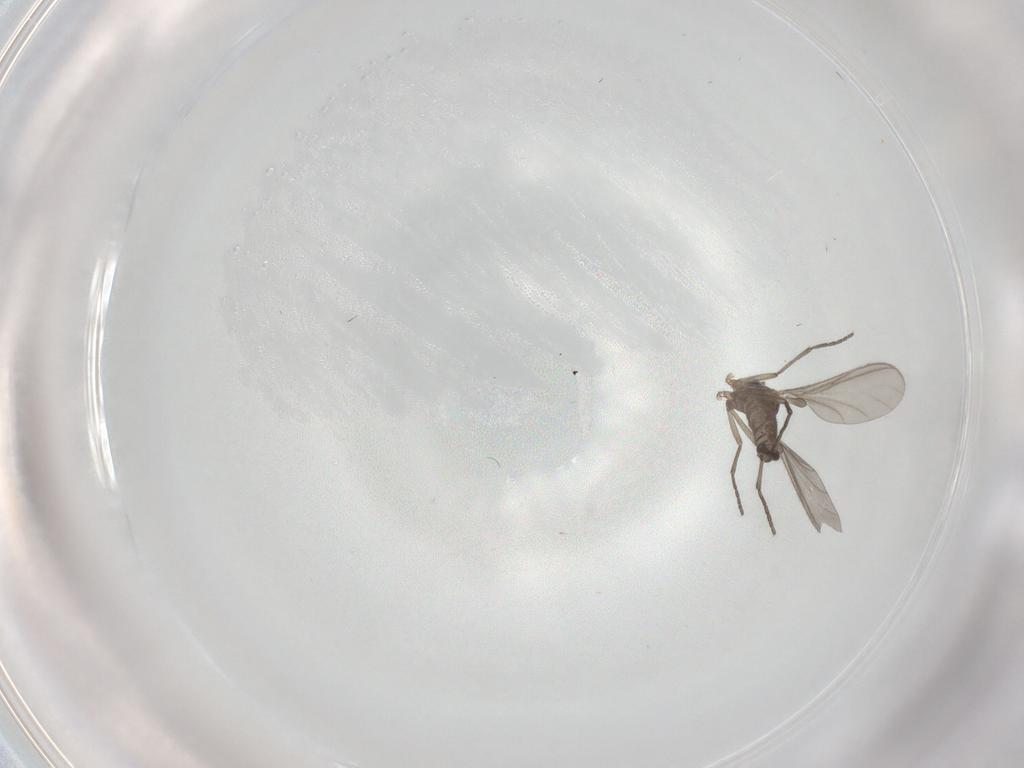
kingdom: Animalia
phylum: Arthropoda
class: Insecta
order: Diptera
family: Sciaridae
